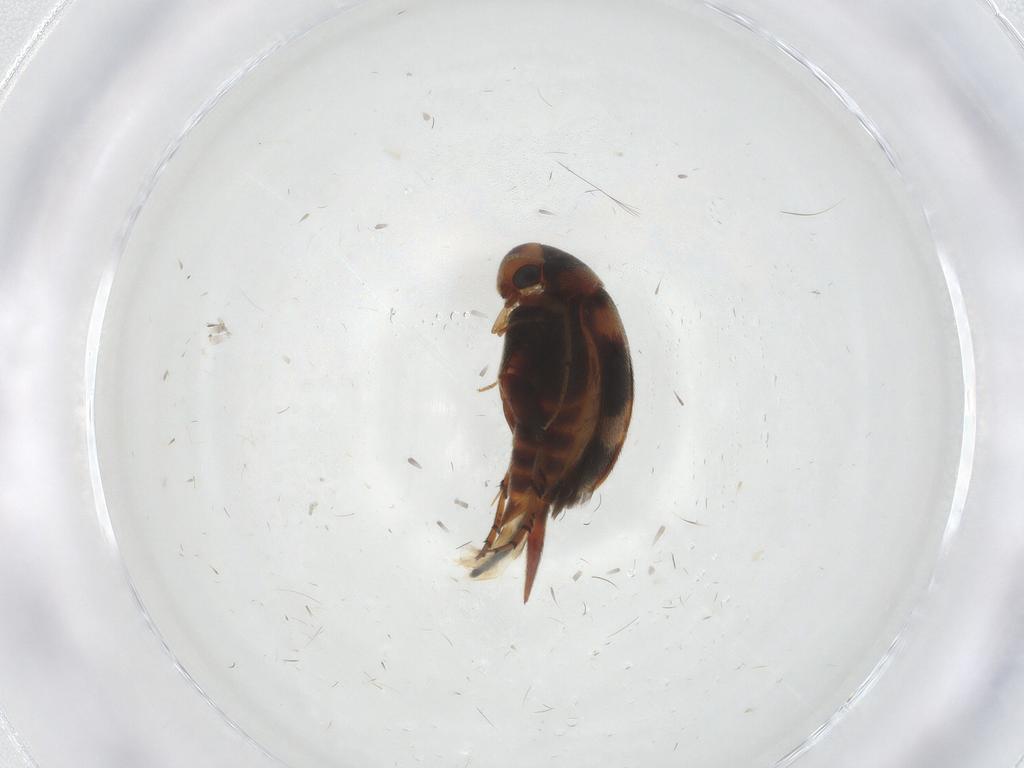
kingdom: Animalia
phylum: Arthropoda
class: Insecta
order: Coleoptera
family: Mordellidae
